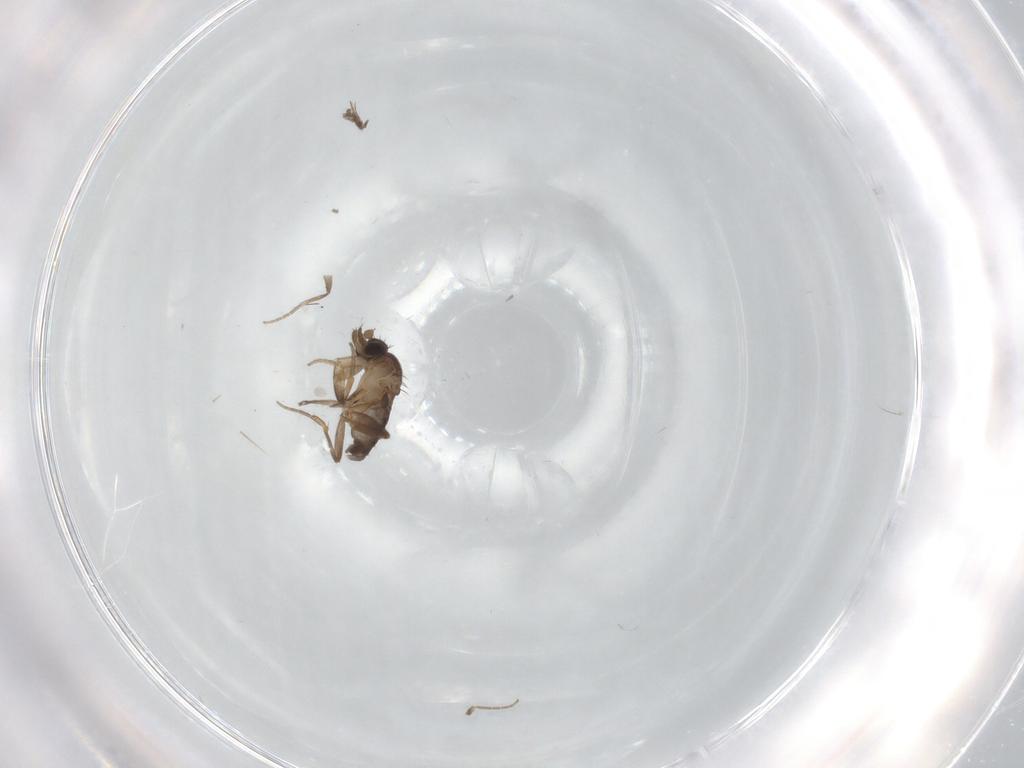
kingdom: Animalia
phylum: Arthropoda
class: Insecta
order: Diptera
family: Phoridae
